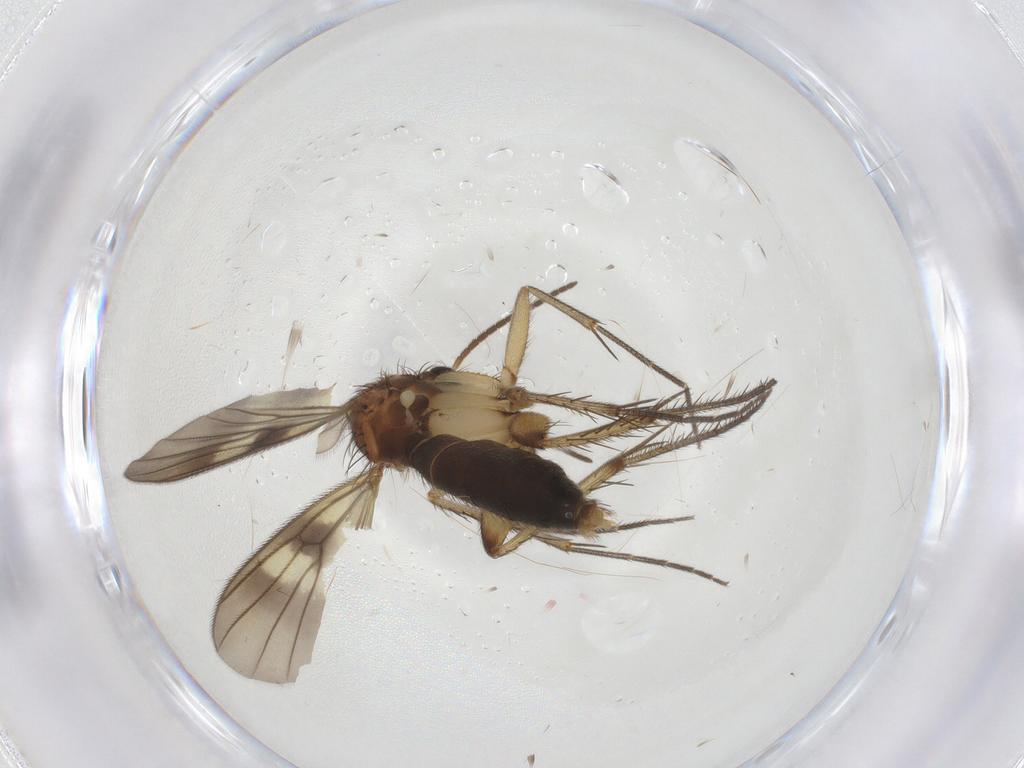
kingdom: Animalia
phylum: Arthropoda
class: Insecta
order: Diptera
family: Mycetophilidae
